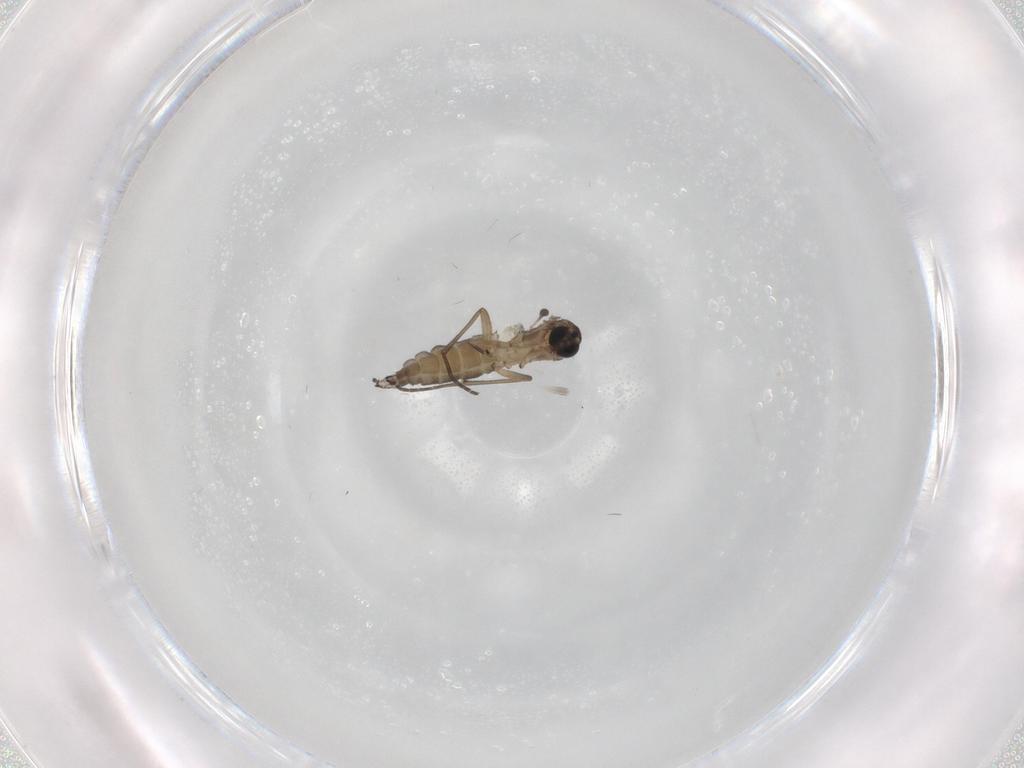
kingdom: Animalia
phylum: Arthropoda
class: Insecta
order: Diptera
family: Sciaridae
